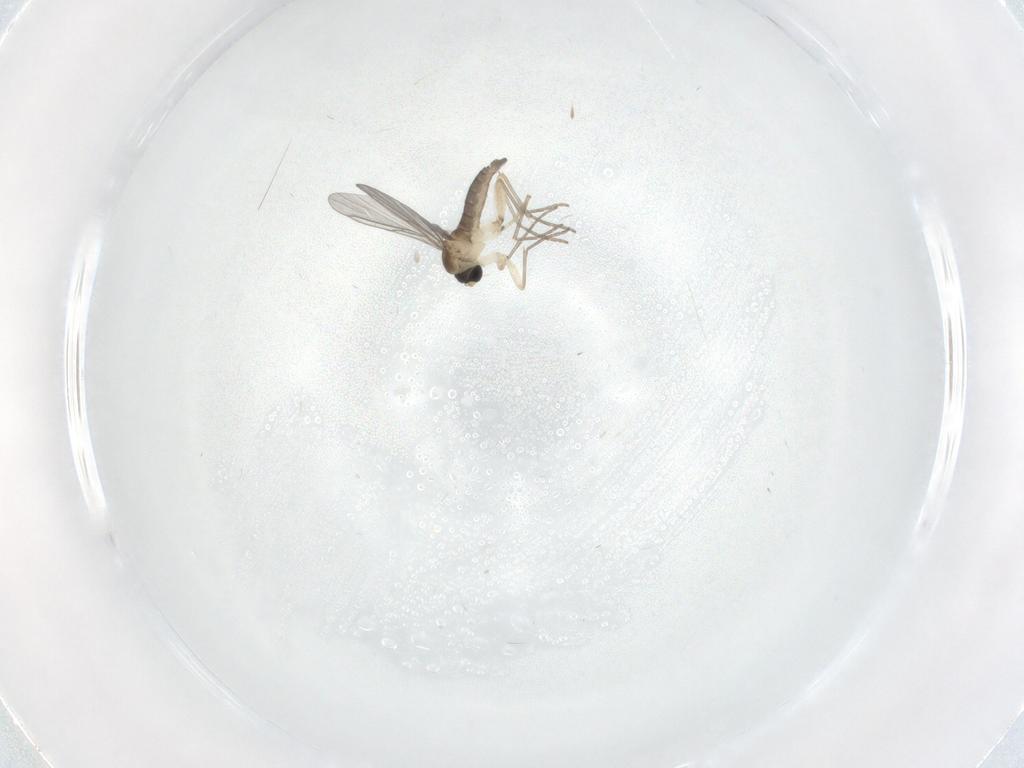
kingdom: Animalia
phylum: Arthropoda
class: Insecta
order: Diptera
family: Sciaridae
